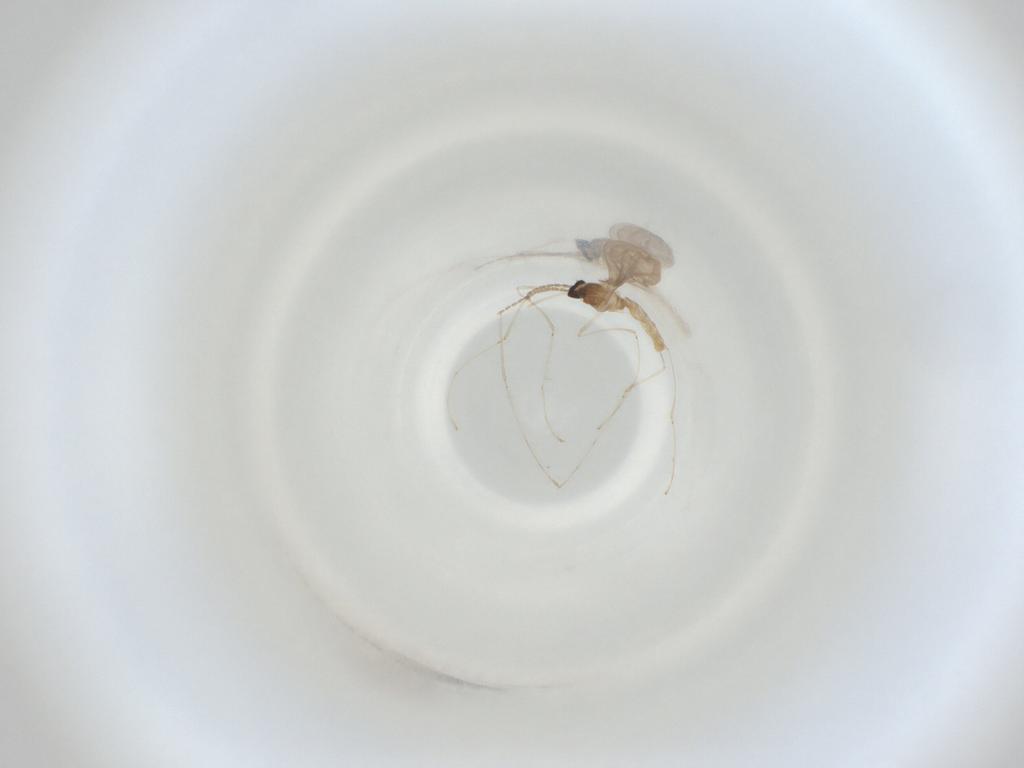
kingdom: Animalia
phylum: Arthropoda
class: Insecta
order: Diptera
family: Cecidomyiidae
